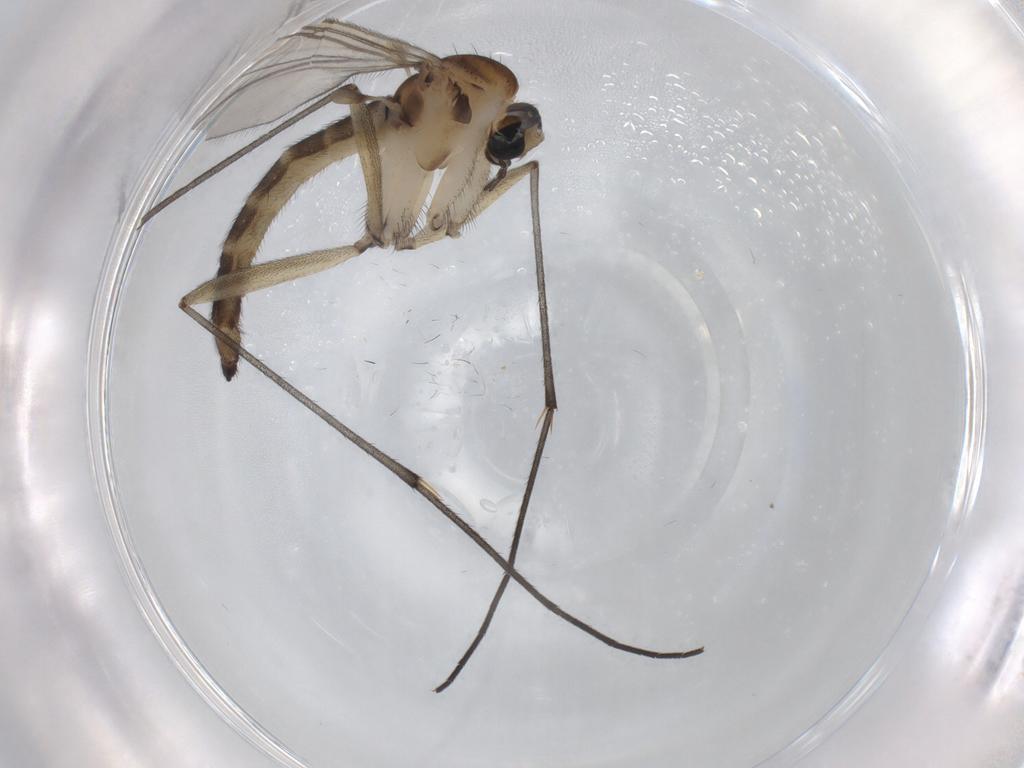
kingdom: Animalia
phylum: Arthropoda
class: Insecta
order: Diptera
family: Sciaridae
